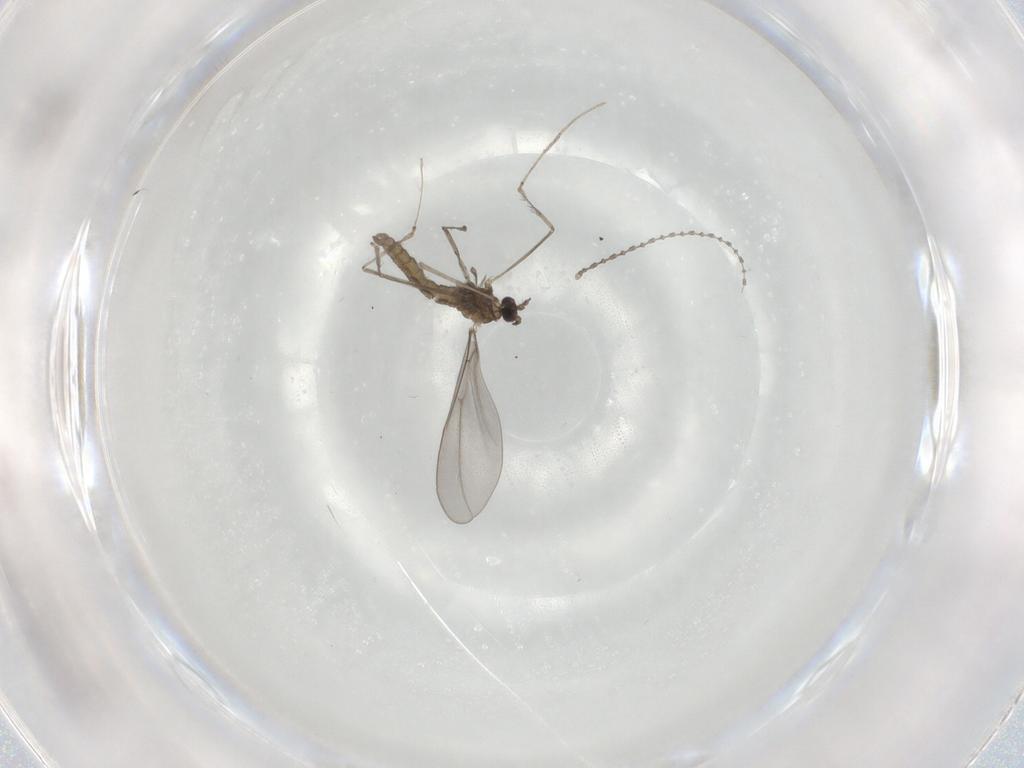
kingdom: Animalia
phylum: Arthropoda
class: Insecta
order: Diptera
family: Cecidomyiidae
